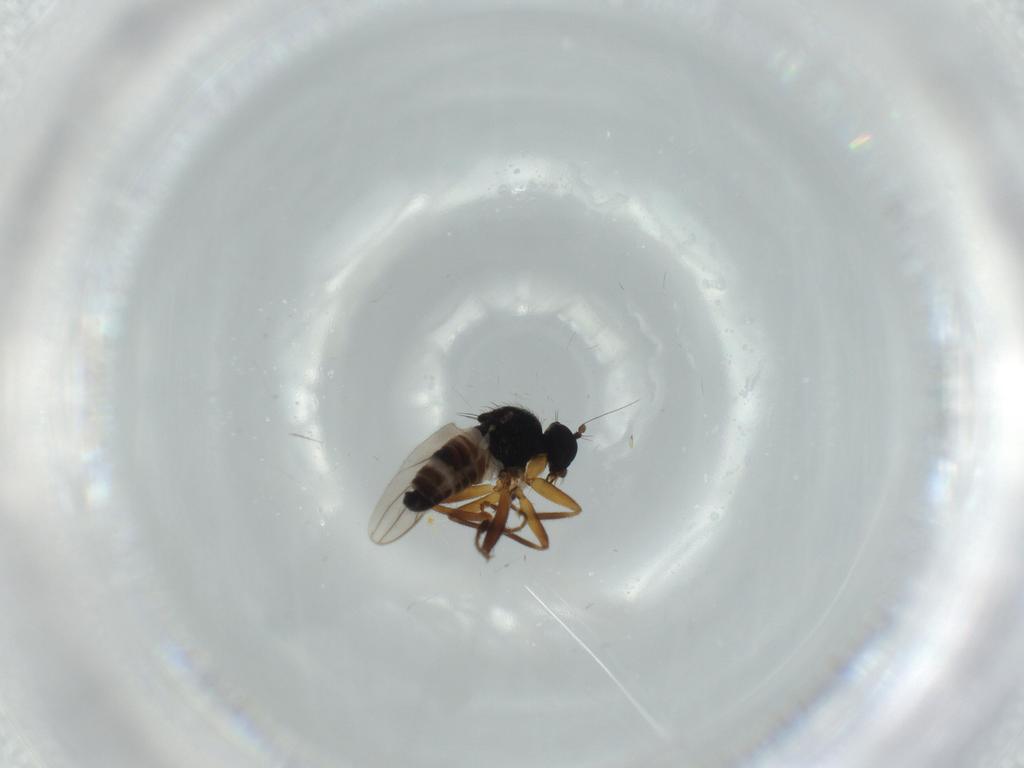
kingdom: Animalia
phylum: Arthropoda
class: Insecta
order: Diptera
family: Hybotidae
